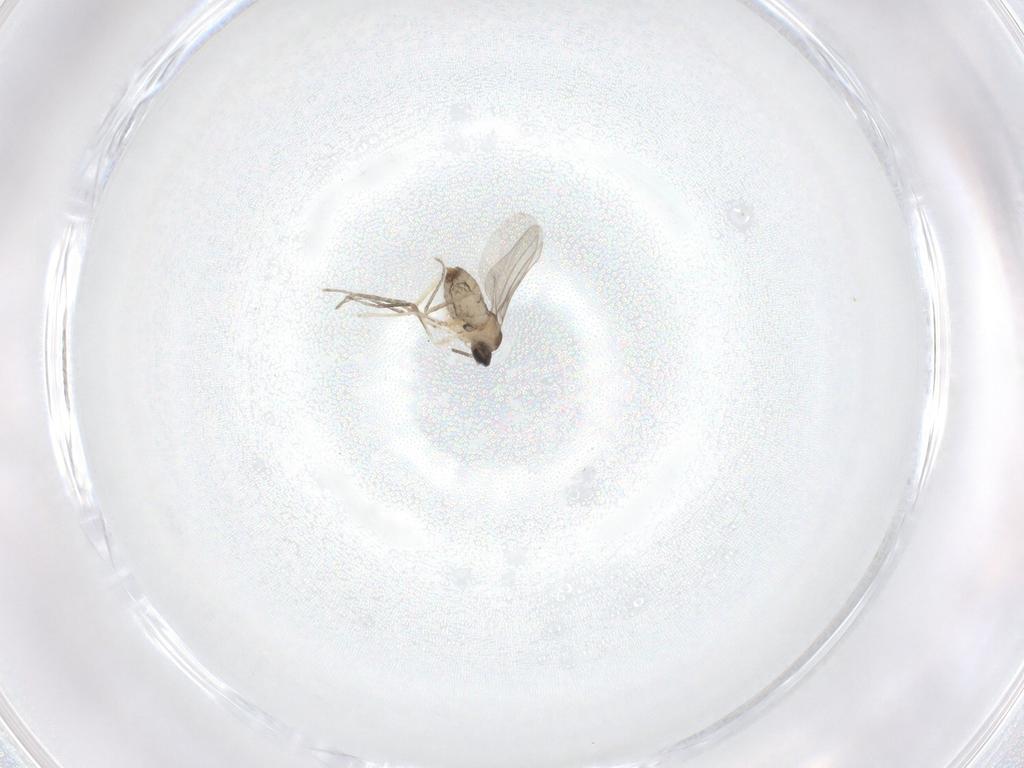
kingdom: Animalia
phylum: Arthropoda
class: Insecta
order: Diptera
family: Cecidomyiidae
